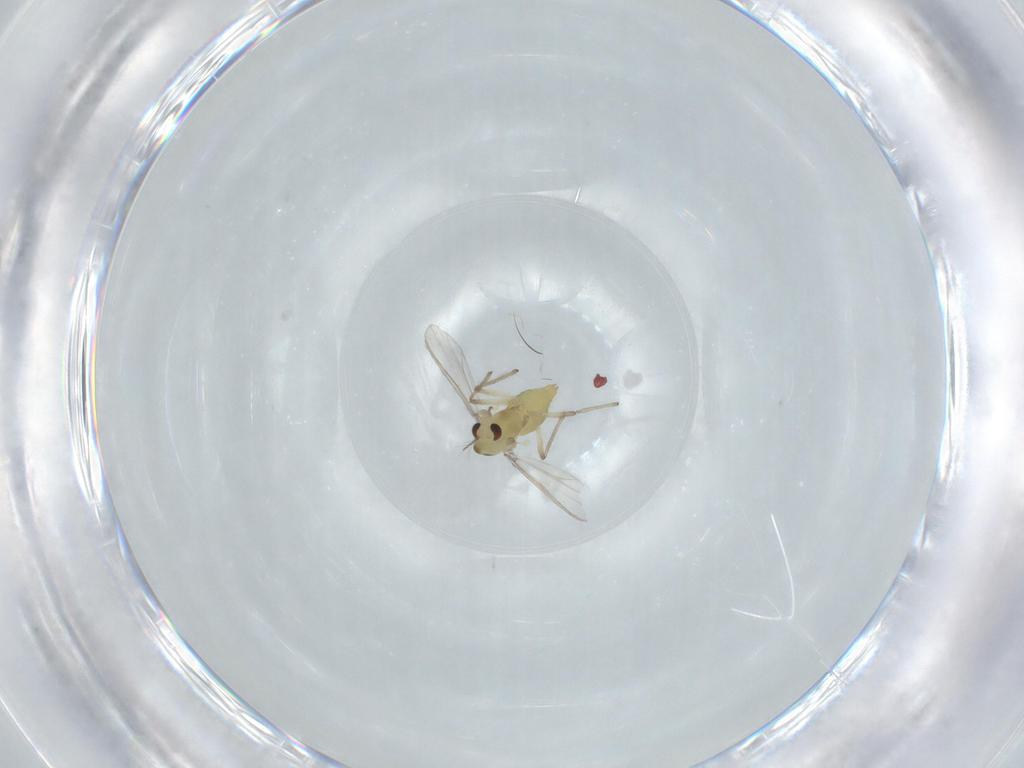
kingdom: Animalia
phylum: Arthropoda
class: Insecta
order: Diptera
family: Chironomidae
